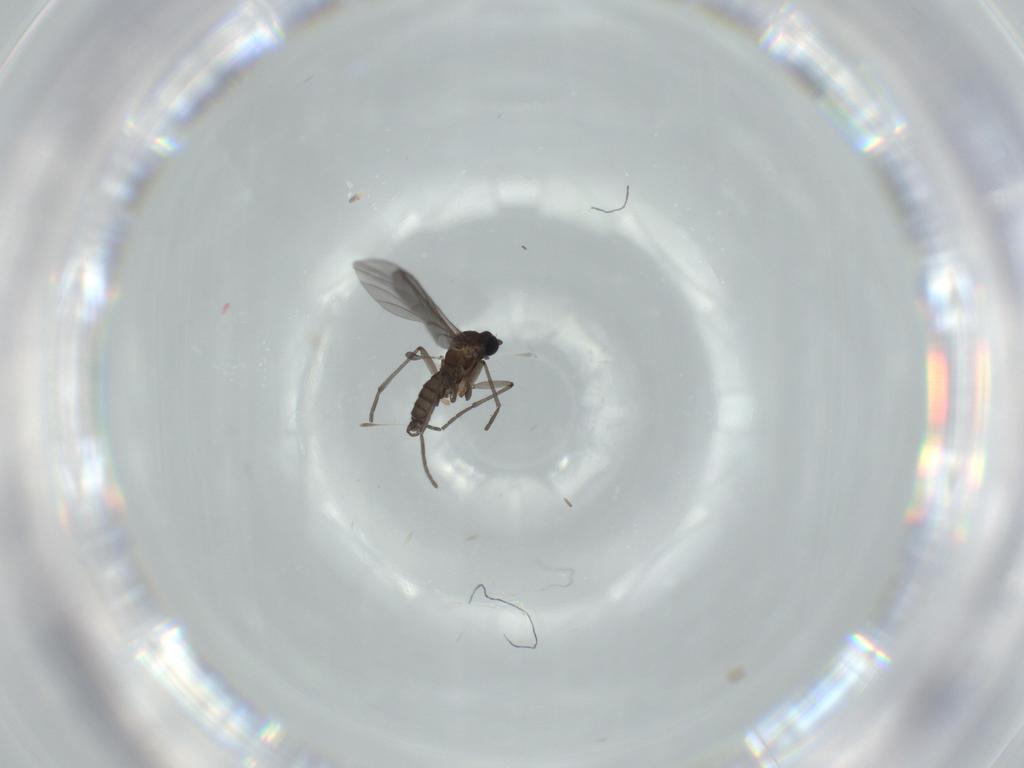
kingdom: Animalia
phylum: Arthropoda
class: Insecta
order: Diptera
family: Sciaridae
